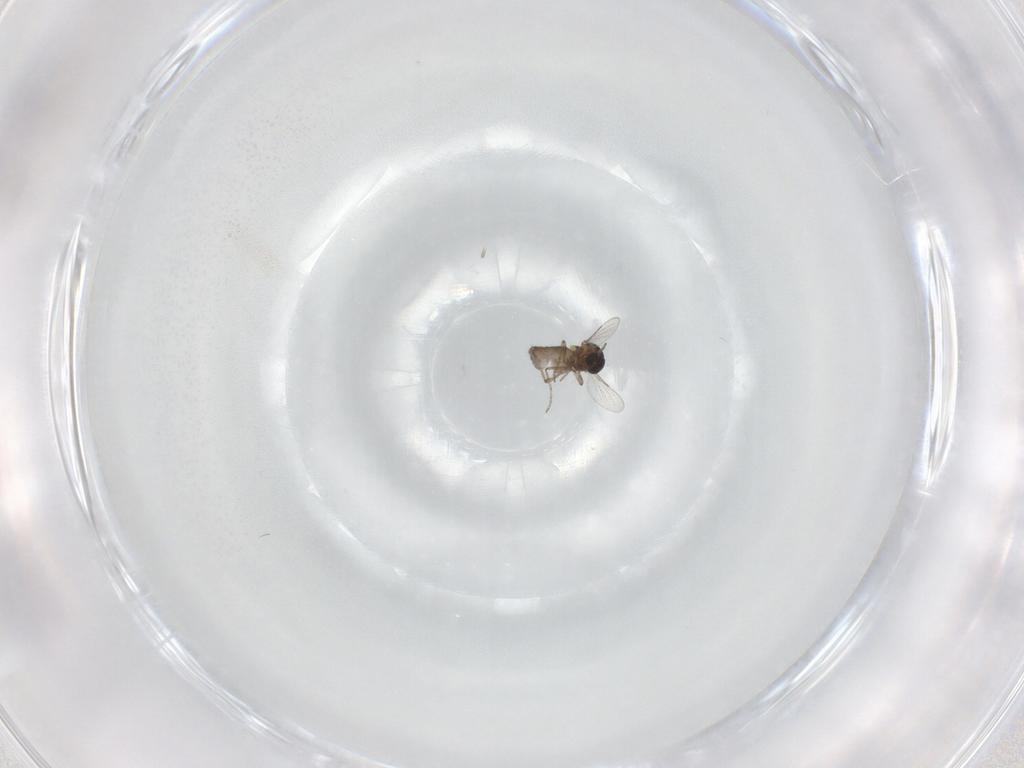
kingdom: Animalia
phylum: Arthropoda
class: Insecta
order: Diptera
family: Ceratopogonidae
